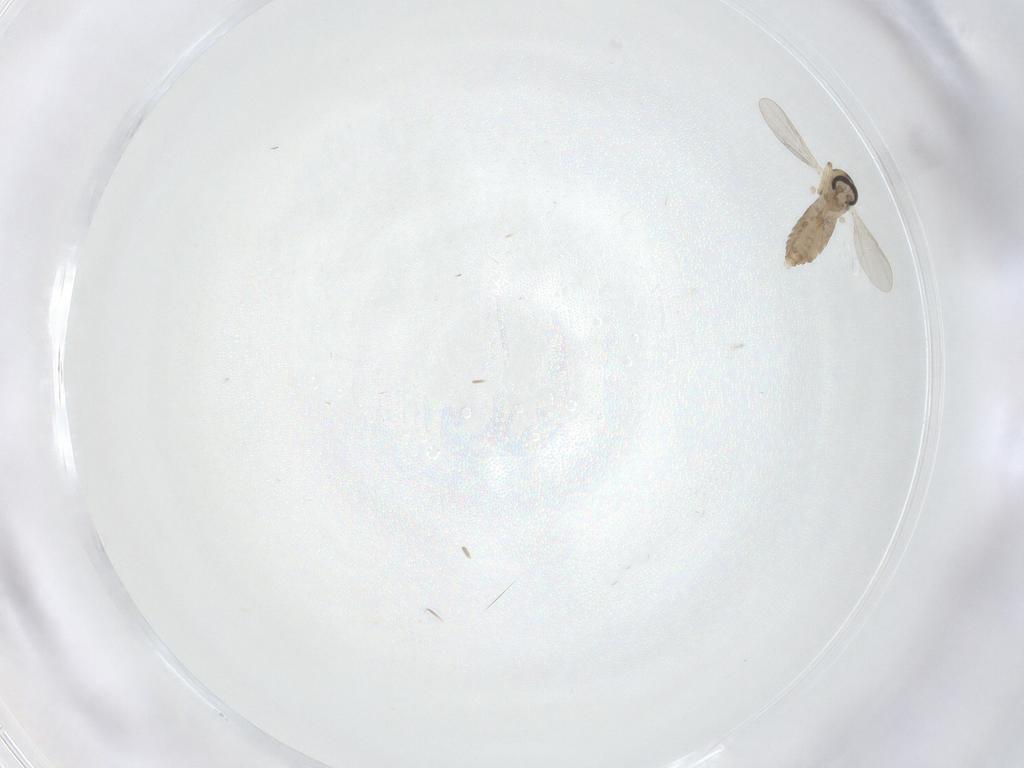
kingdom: Animalia
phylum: Arthropoda
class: Insecta
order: Diptera
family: Ceratopogonidae
